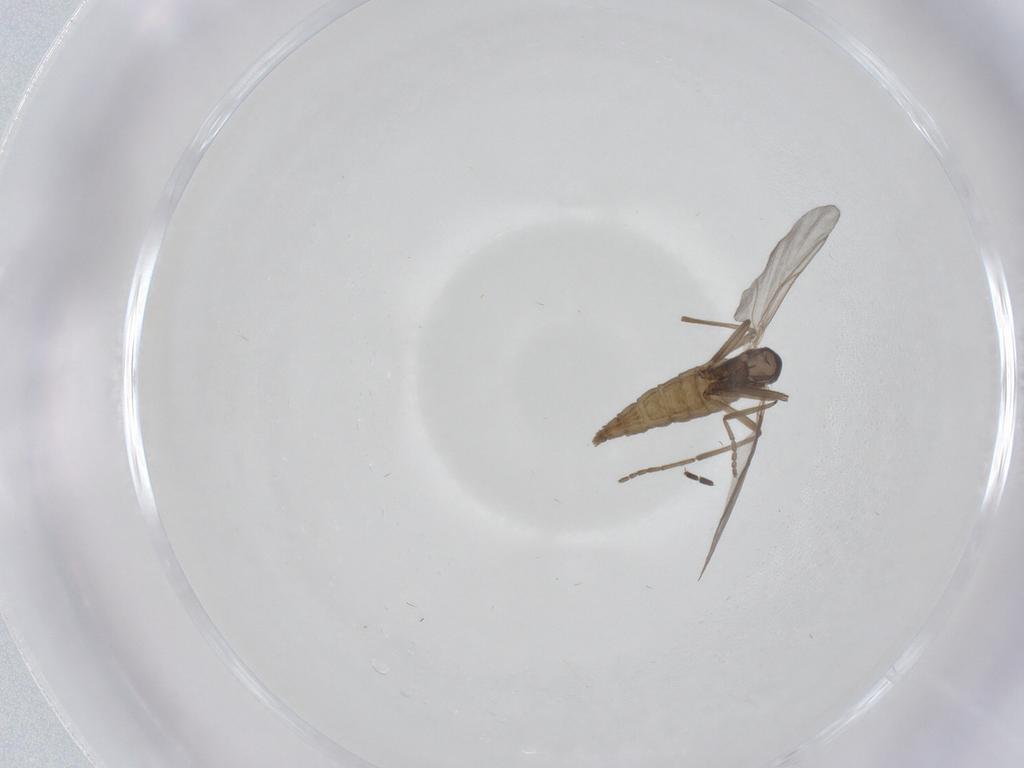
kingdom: Animalia
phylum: Arthropoda
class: Insecta
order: Diptera
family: Cecidomyiidae
